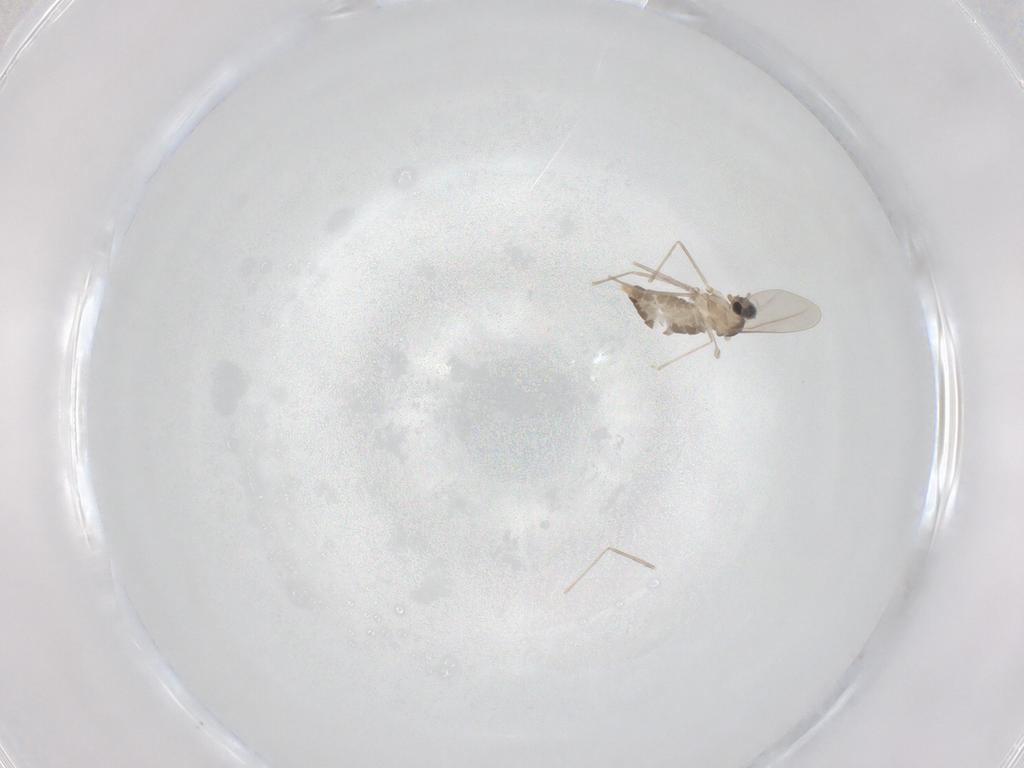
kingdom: Animalia
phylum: Arthropoda
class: Insecta
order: Diptera
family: Cecidomyiidae
